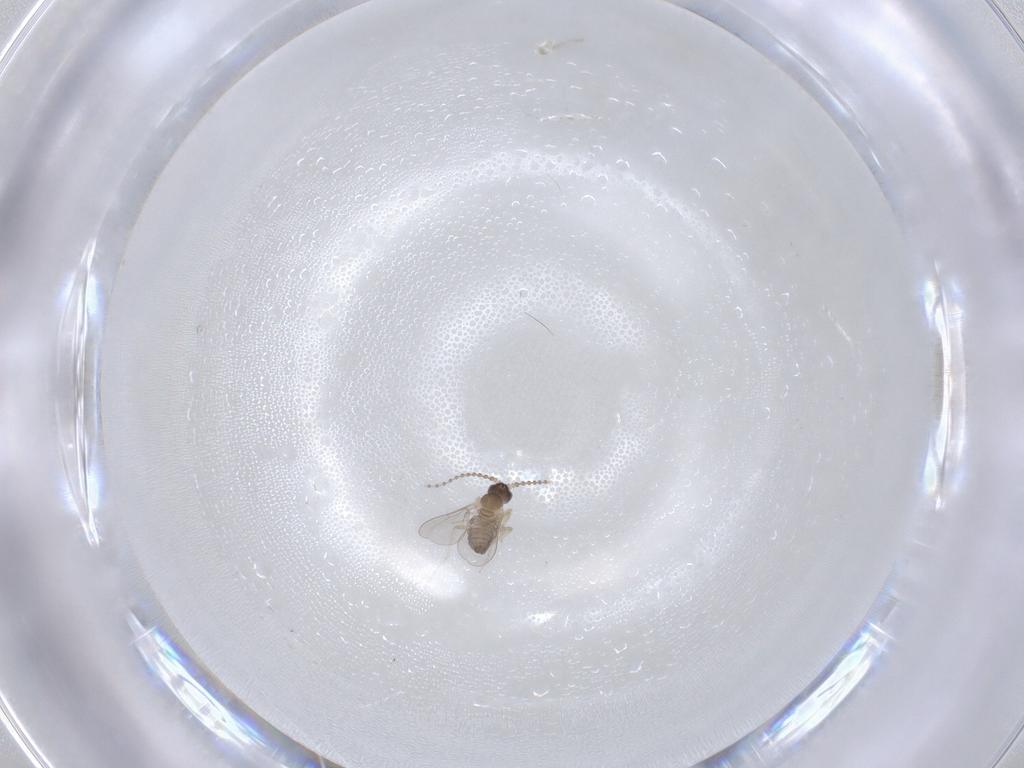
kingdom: Animalia
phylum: Arthropoda
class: Insecta
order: Diptera
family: Cecidomyiidae
